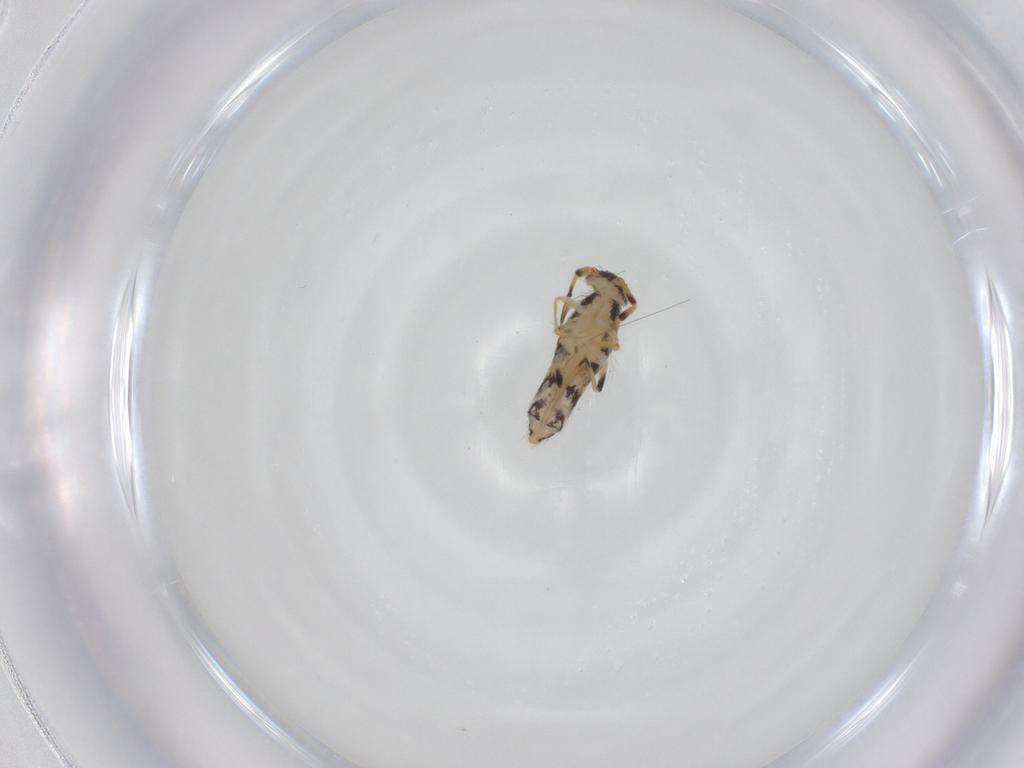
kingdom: Animalia
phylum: Arthropoda
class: Collembola
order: Entomobryomorpha
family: Isotomidae
